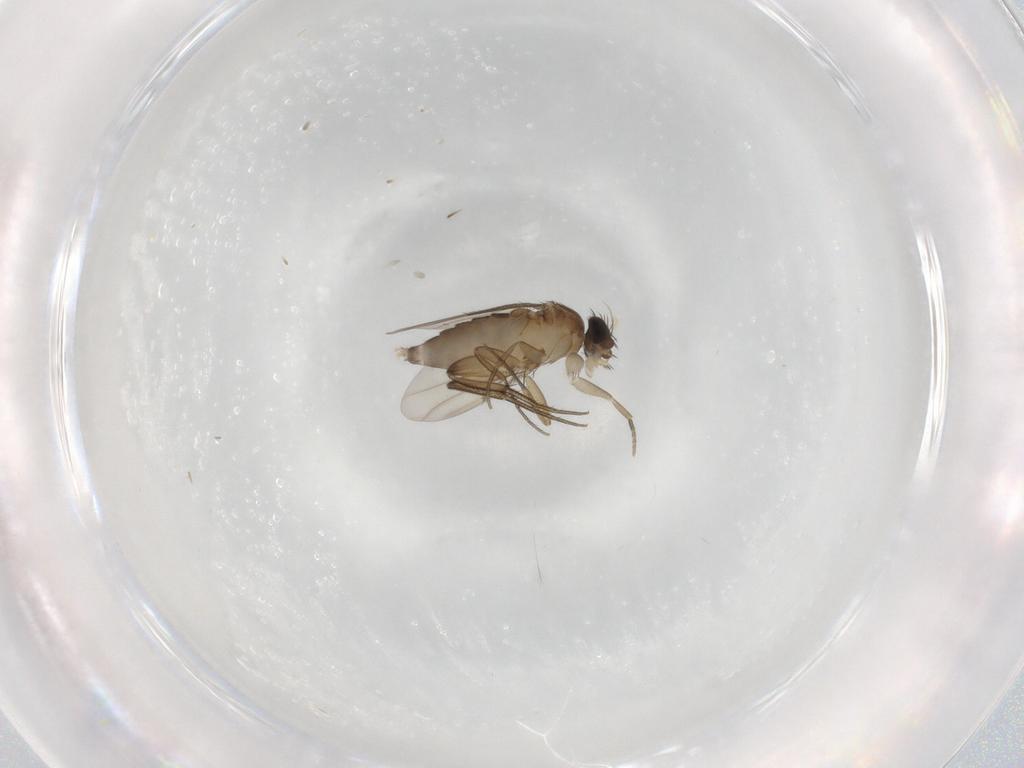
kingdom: Animalia
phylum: Arthropoda
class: Insecta
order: Diptera
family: Phoridae
